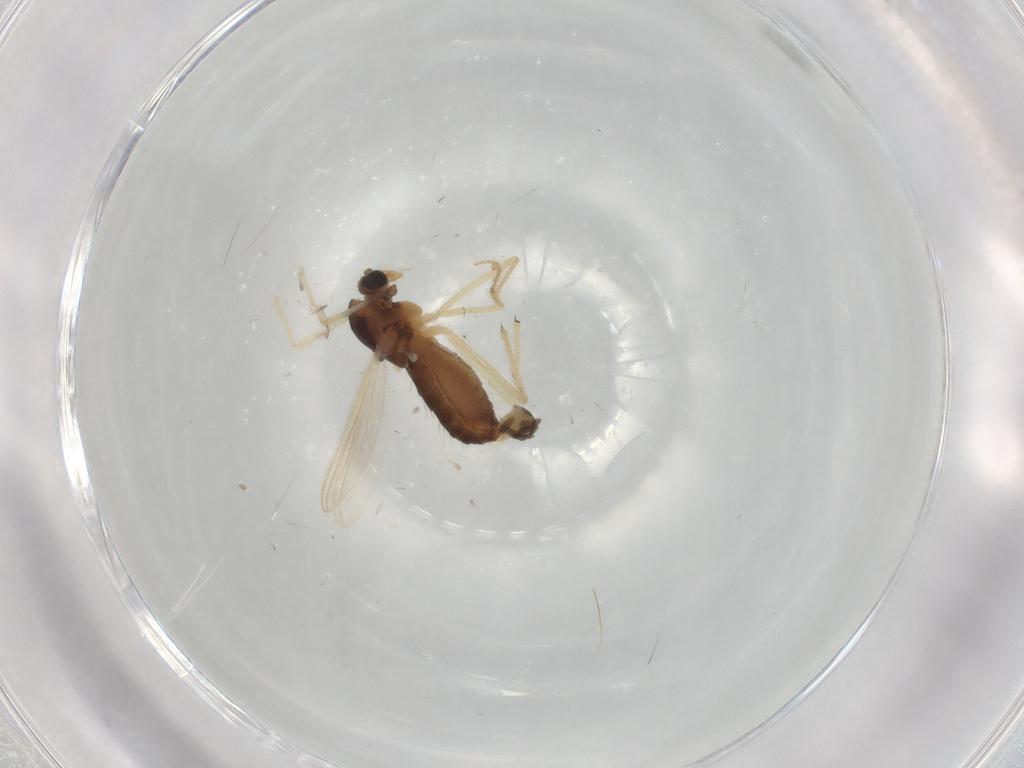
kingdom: Animalia
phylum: Arthropoda
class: Insecta
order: Diptera
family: Chironomidae
